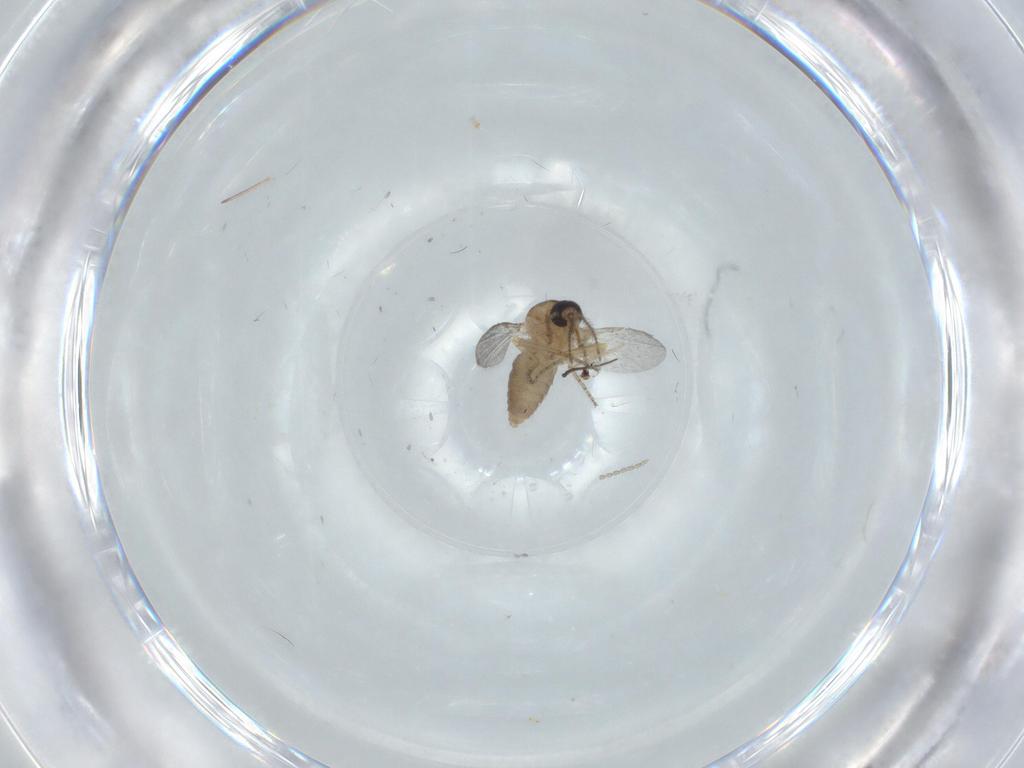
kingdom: Animalia
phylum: Arthropoda
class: Insecta
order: Diptera
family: Cecidomyiidae
